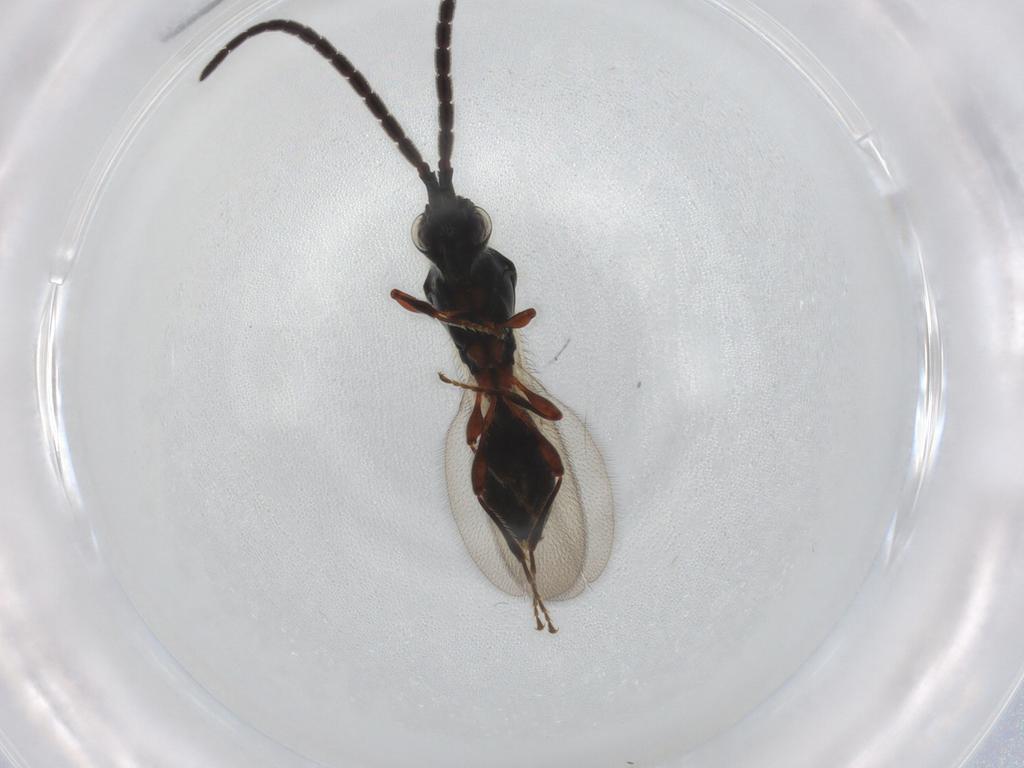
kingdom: Animalia
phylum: Arthropoda
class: Insecta
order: Hymenoptera
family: Diapriidae
